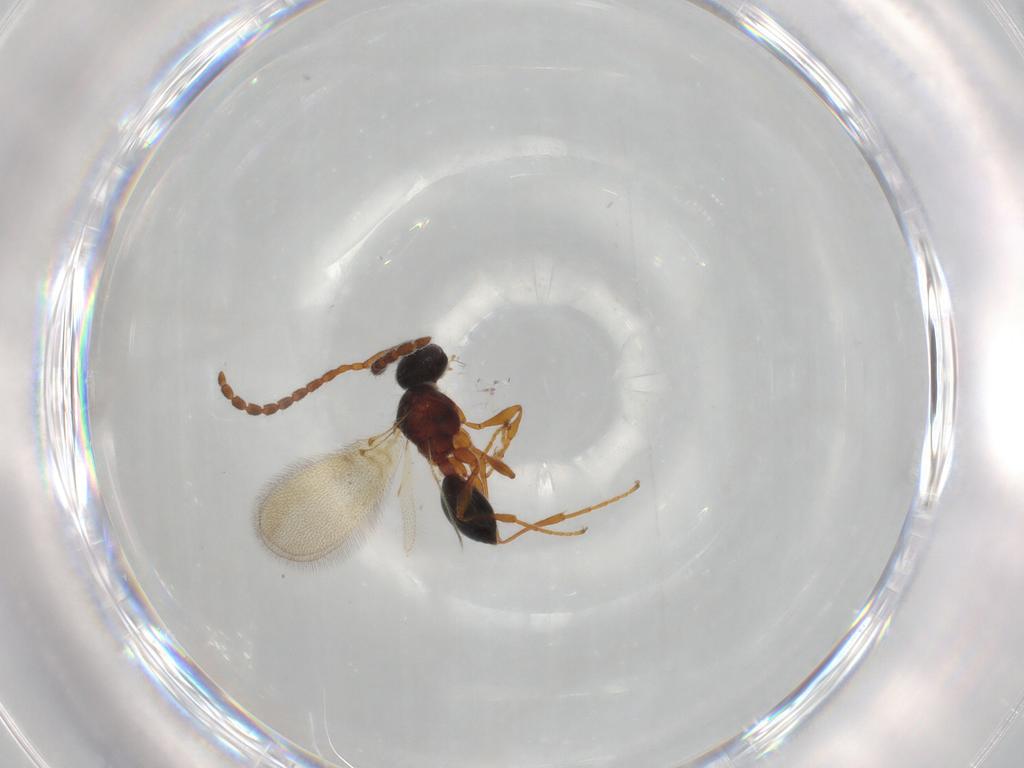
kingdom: Animalia
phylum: Arthropoda
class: Insecta
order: Hymenoptera
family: Diapriidae
